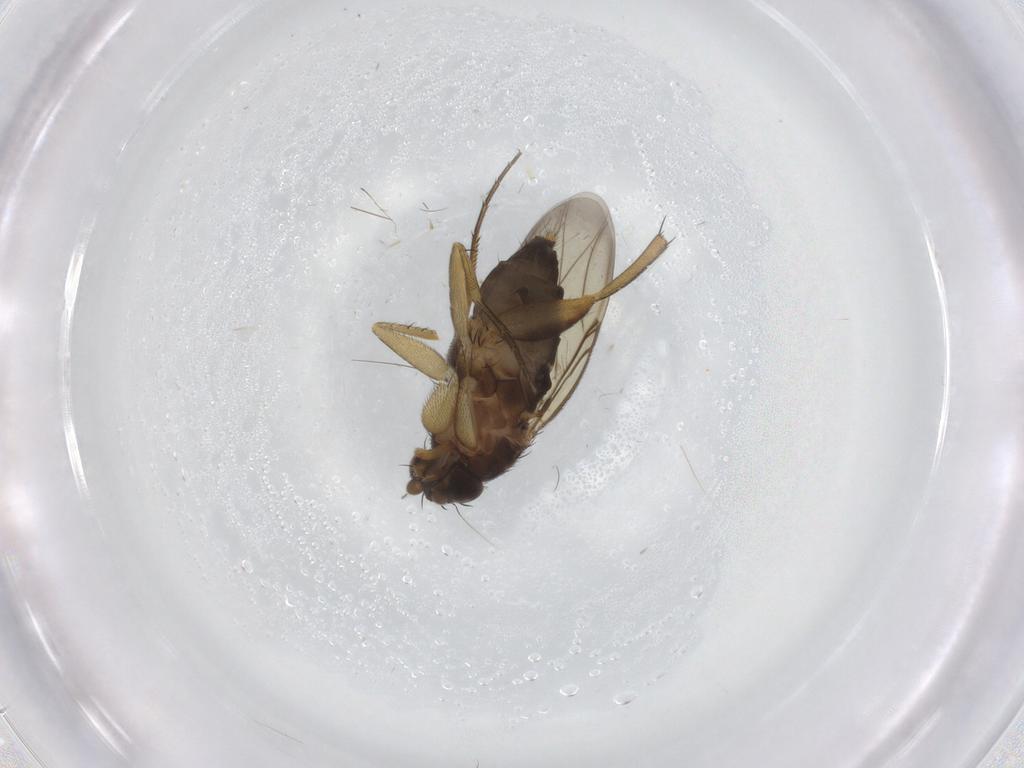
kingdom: Animalia
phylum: Arthropoda
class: Insecta
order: Diptera
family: Phoridae
